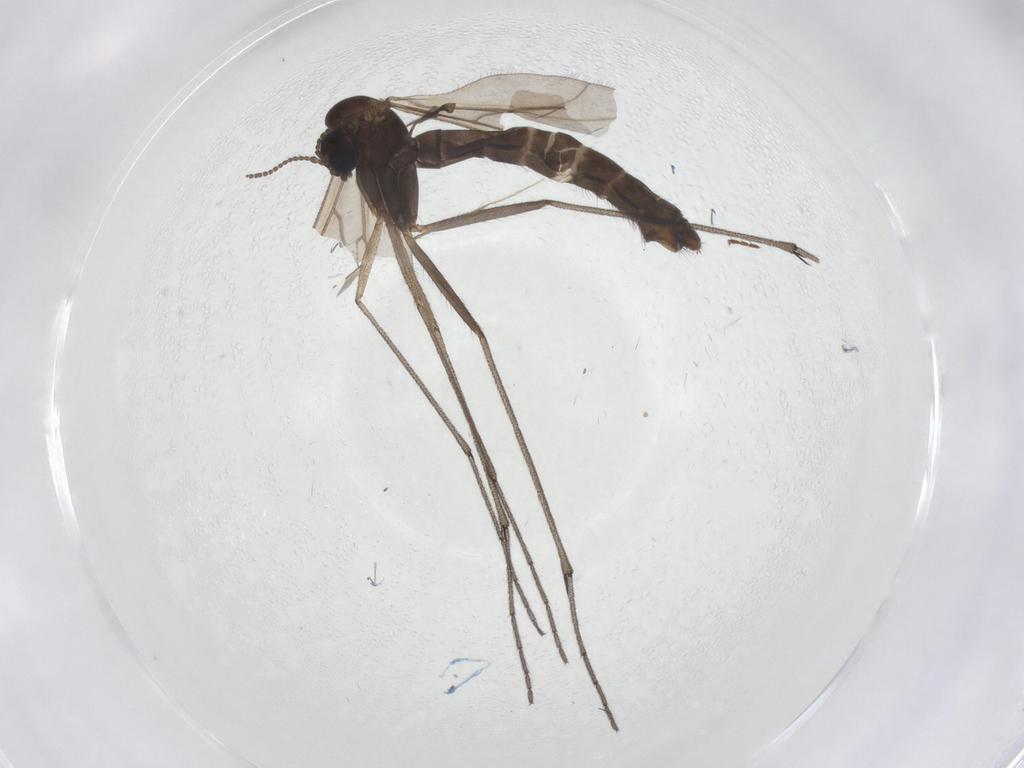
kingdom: Animalia
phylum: Arthropoda
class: Insecta
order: Diptera
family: Ditomyiidae
